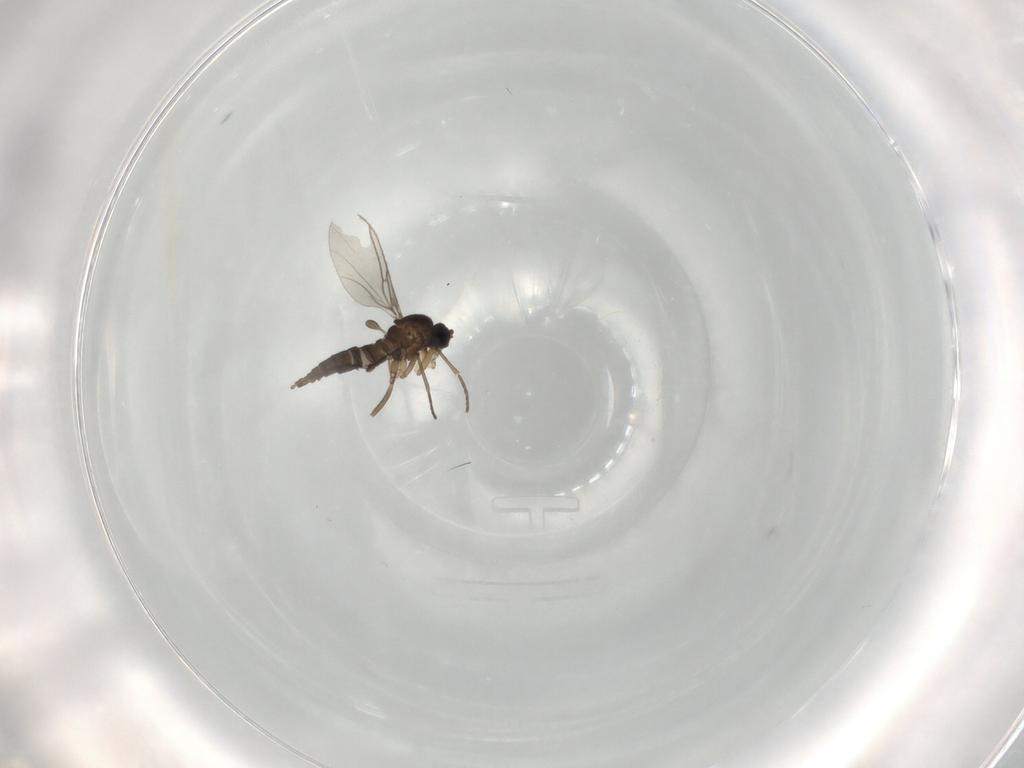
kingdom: Animalia
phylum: Arthropoda
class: Insecta
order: Diptera
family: Sciaridae
